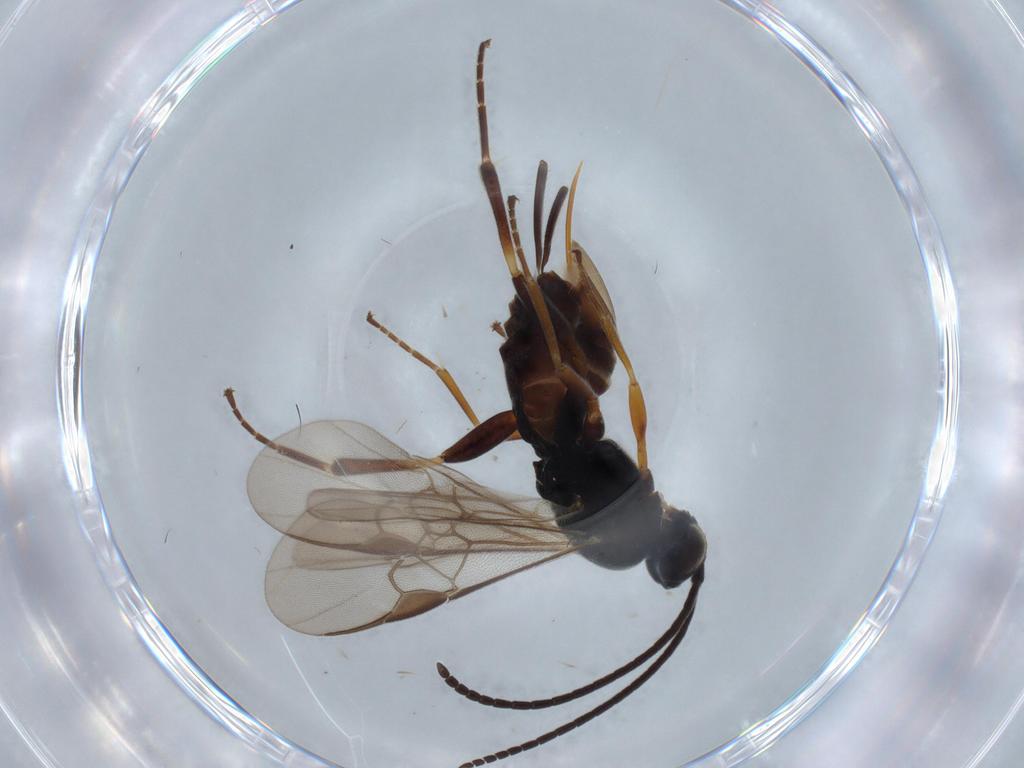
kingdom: Animalia
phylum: Arthropoda
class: Insecta
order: Hymenoptera
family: Braconidae
